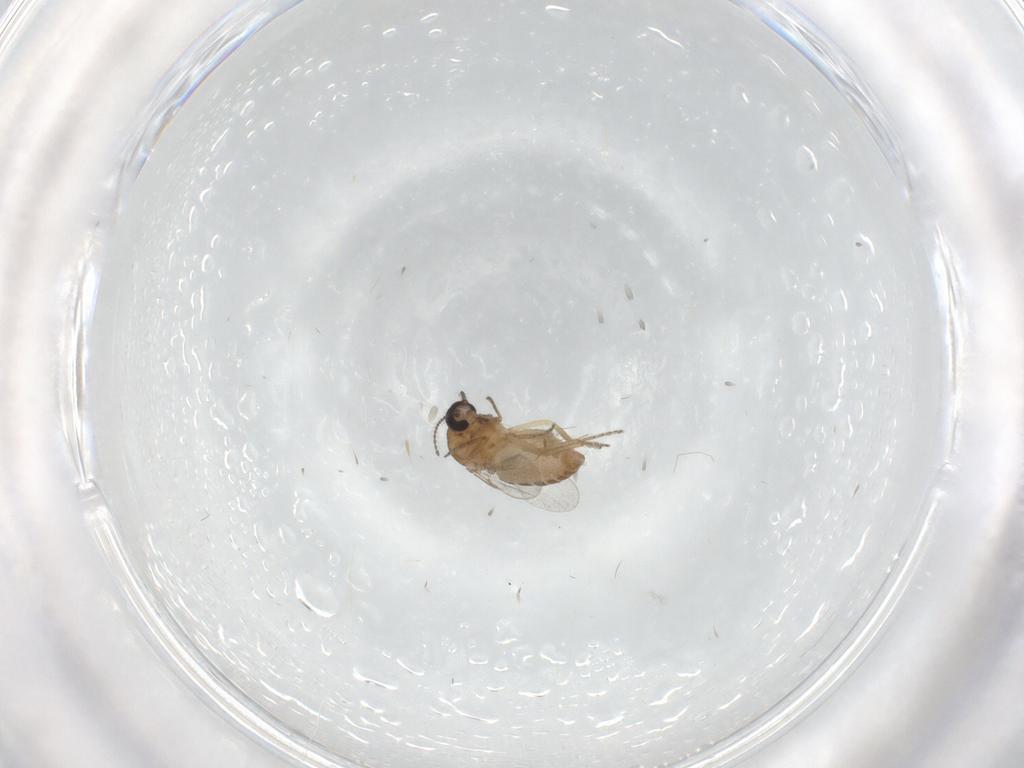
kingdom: Animalia
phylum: Arthropoda
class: Insecta
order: Diptera
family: Ceratopogonidae
